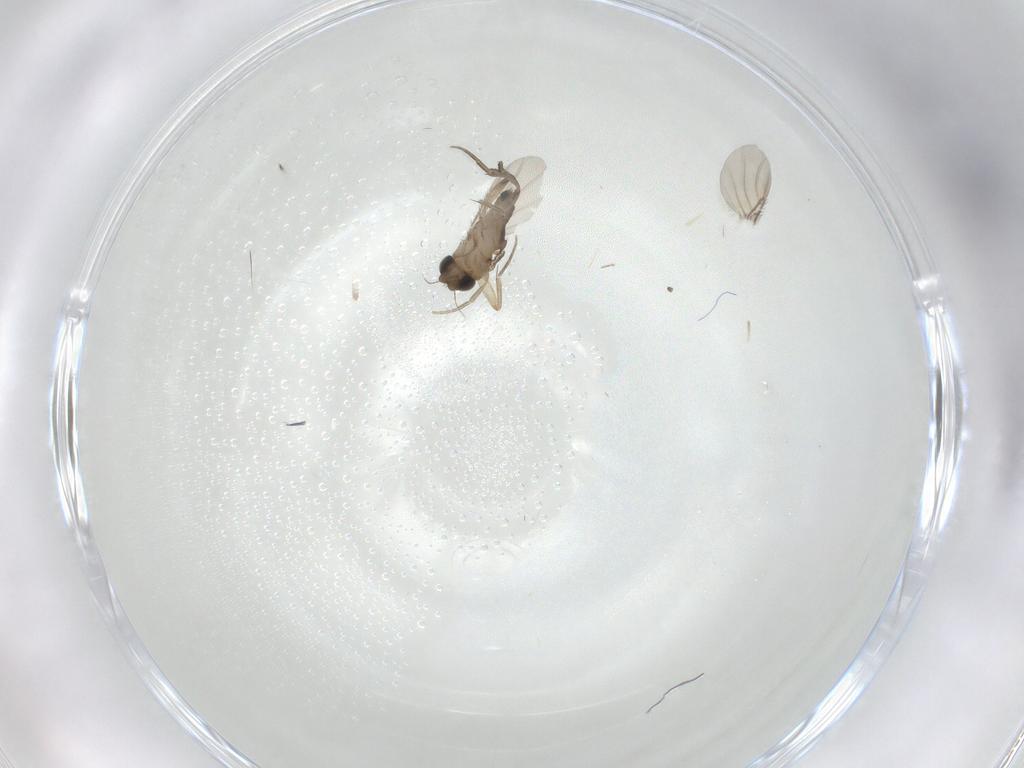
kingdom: Animalia
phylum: Arthropoda
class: Insecta
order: Diptera
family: Phoridae
